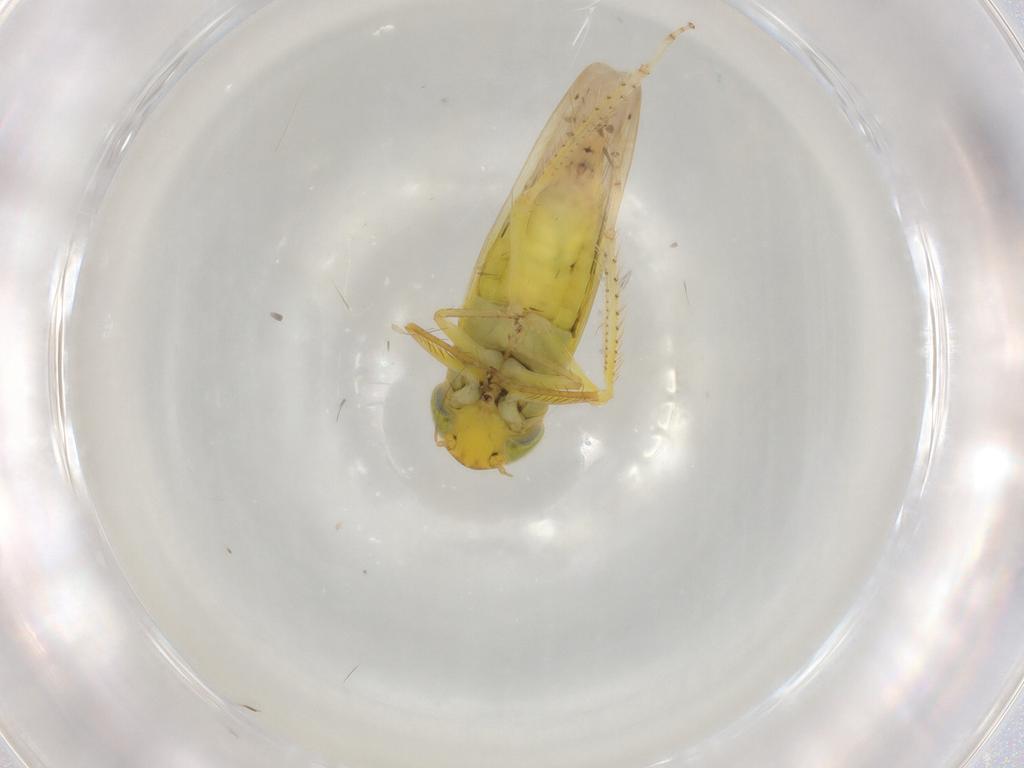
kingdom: Animalia
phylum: Arthropoda
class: Insecta
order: Hemiptera
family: Cicadellidae
